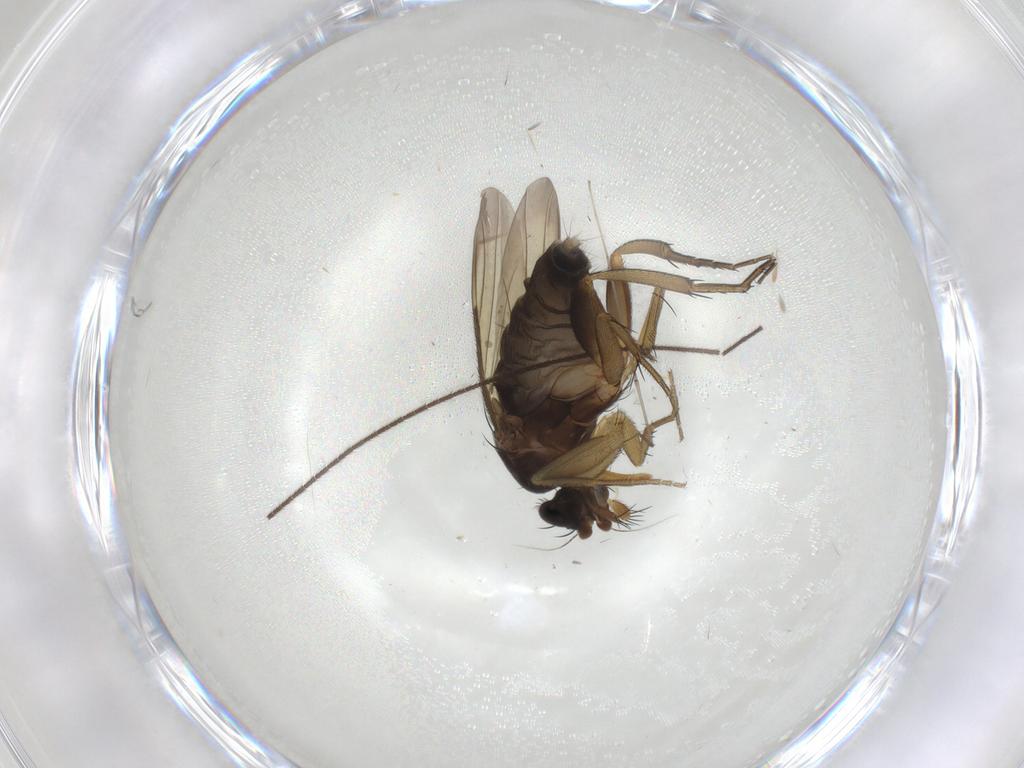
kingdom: Animalia
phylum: Arthropoda
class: Insecta
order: Diptera
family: Phoridae
